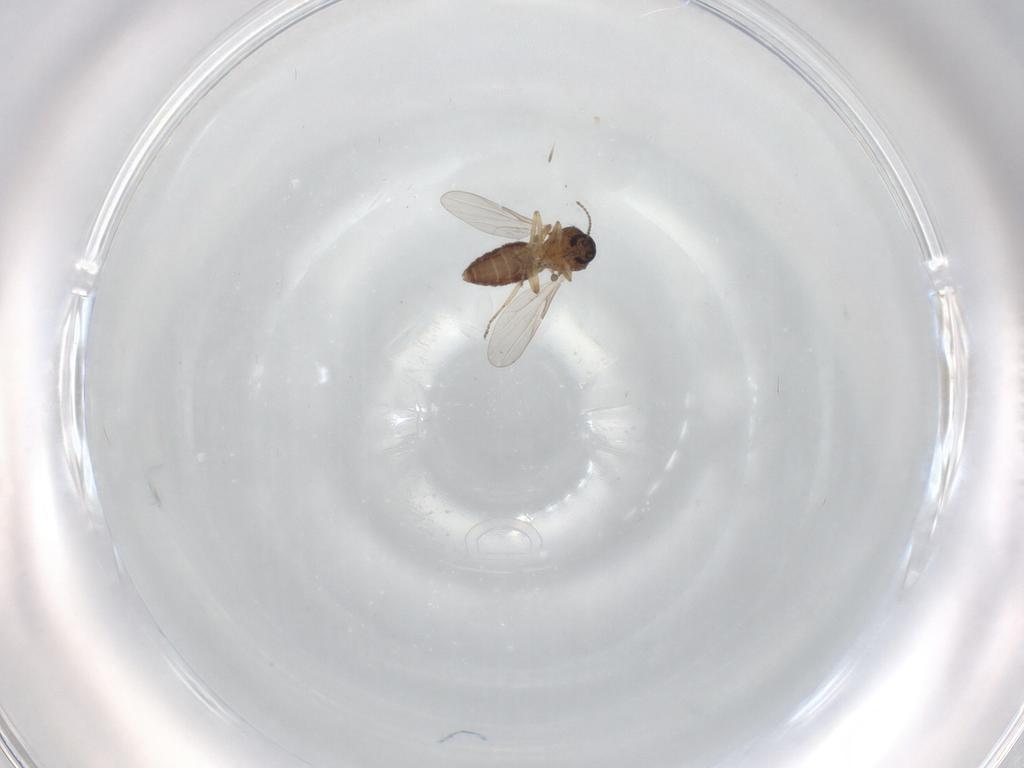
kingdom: Animalia
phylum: Arthropoda
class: Insecta
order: Diptera
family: Ceratopogonidae
